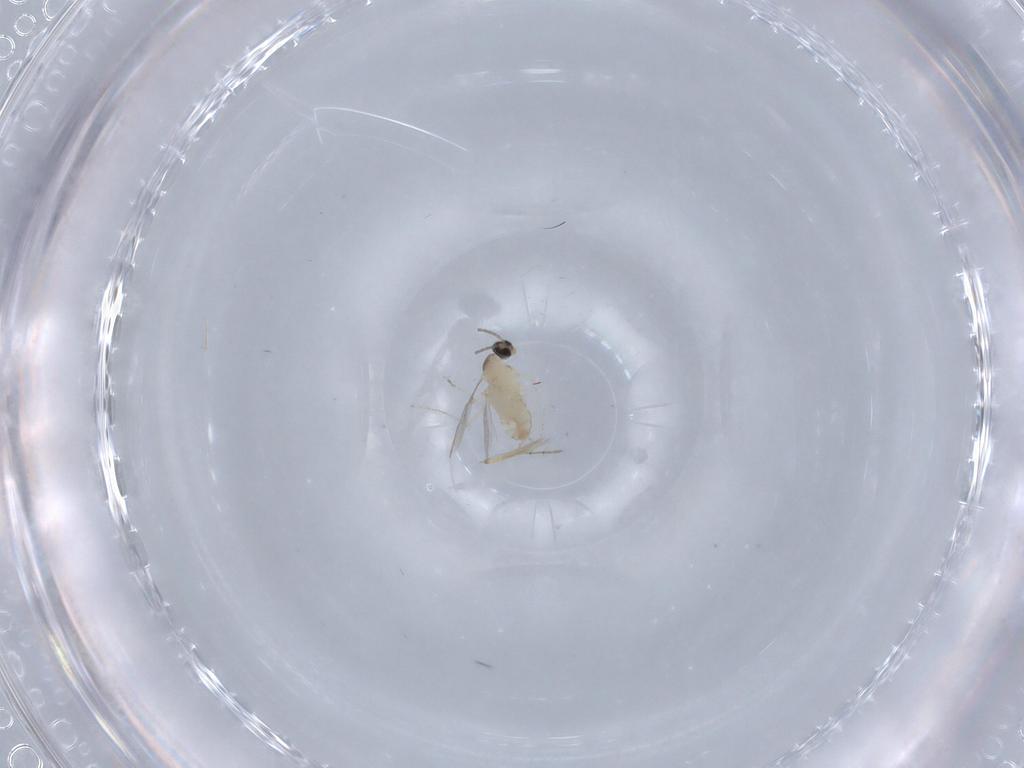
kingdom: Animalia
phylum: Arthropoda
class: Insecta
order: Diptera
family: Cecidomyiidae
